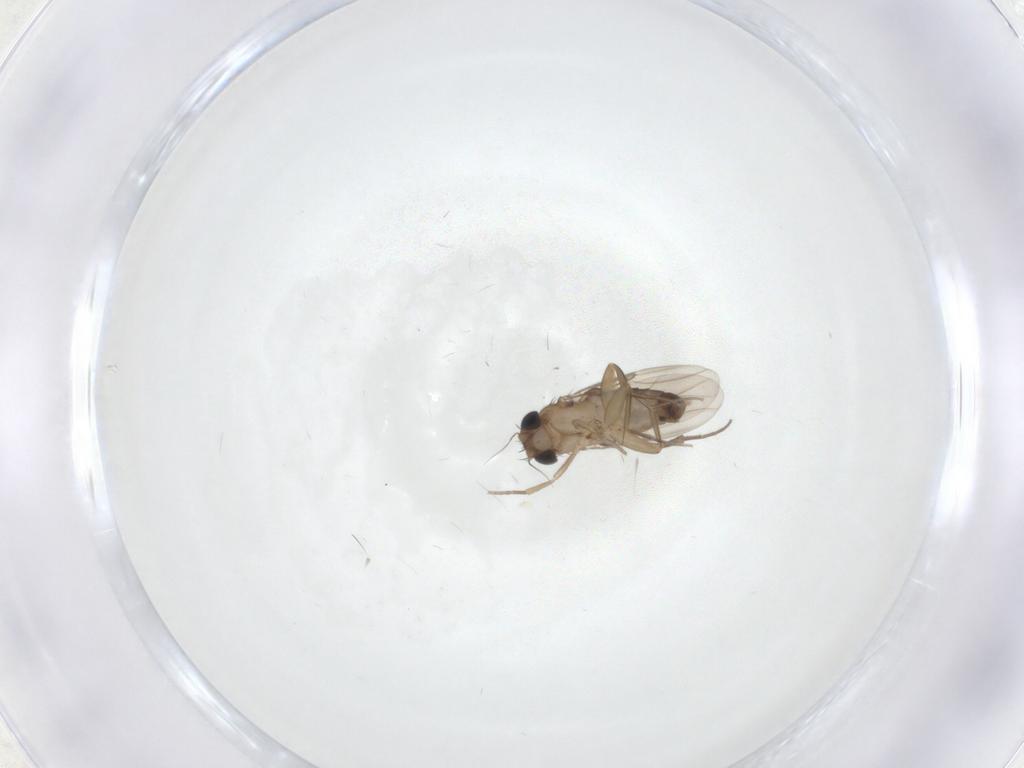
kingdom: Animalia
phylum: Arthropoda
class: Insecta
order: Diptera
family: Phoridae
